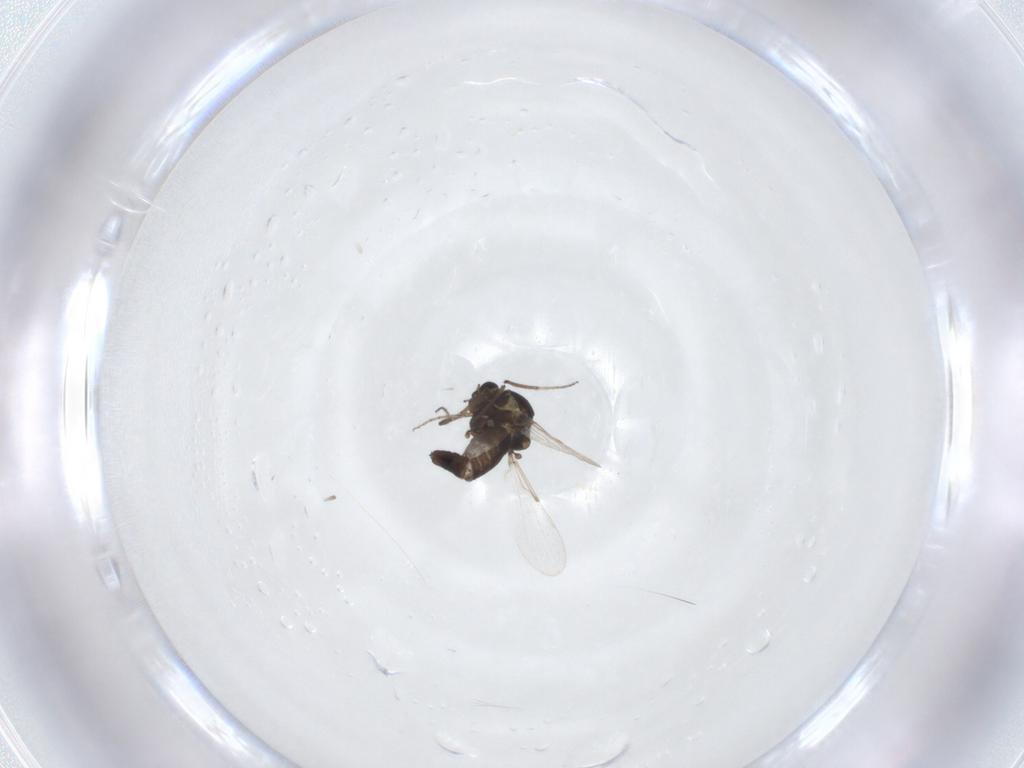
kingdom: Animalia
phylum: Arthropoda
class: Insecta
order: Diptera
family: Ceratopogonidae
